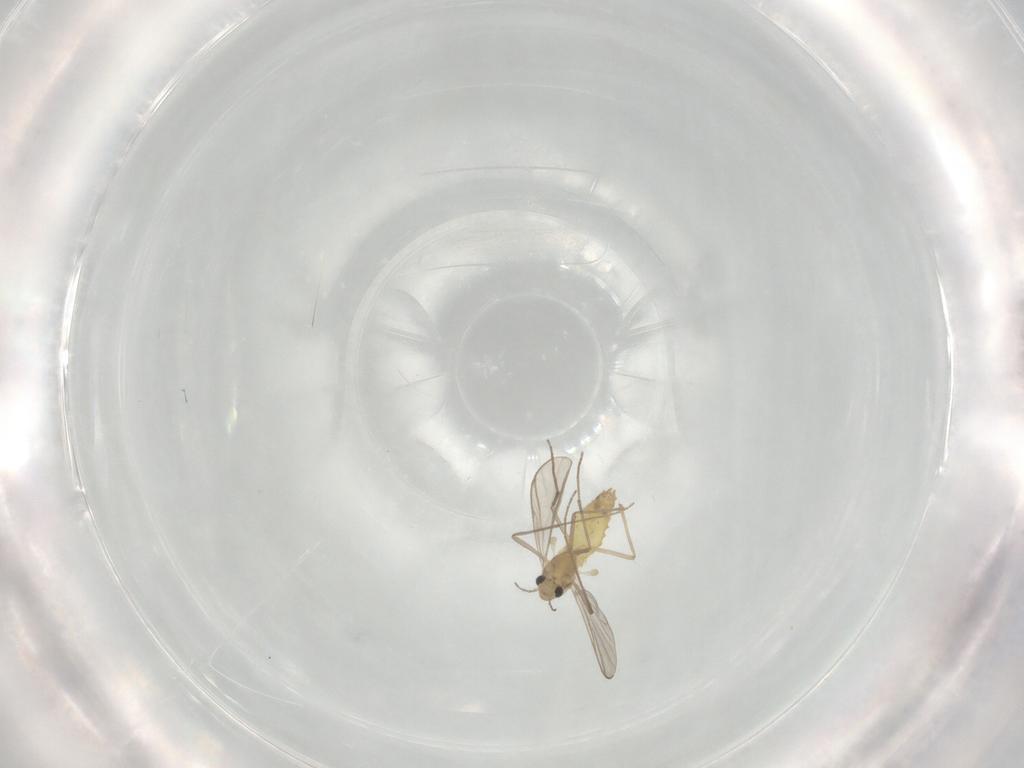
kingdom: Animalia
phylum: Arthropoda
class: Insecta
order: Diptera
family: Chironomidae
